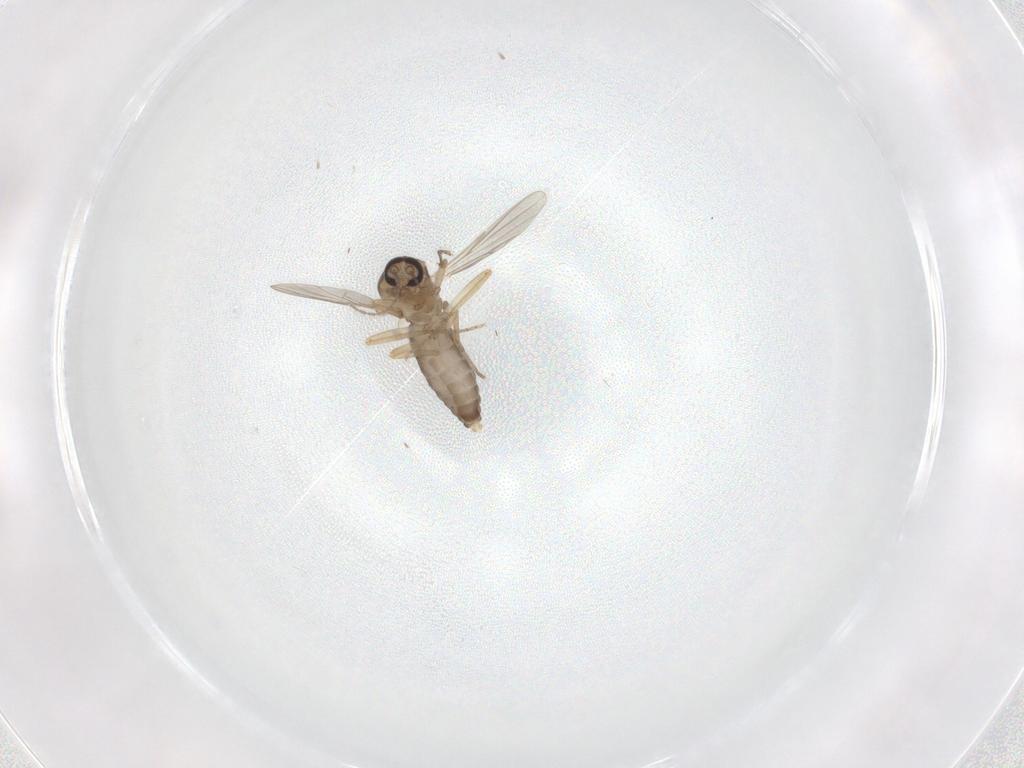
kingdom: Animalia
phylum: Arthropoda
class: Insecta
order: Diptera
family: Ceratopogonidae
